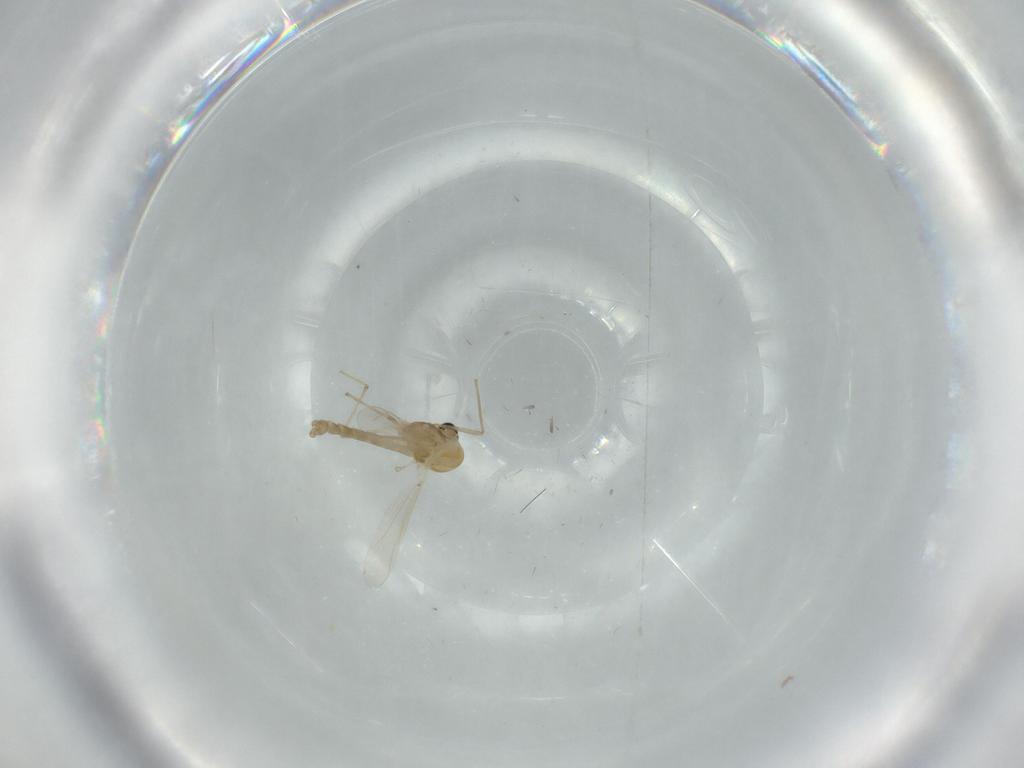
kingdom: Animalia
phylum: Arthropoda
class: Insecta
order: Diptera
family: Chironomidae
